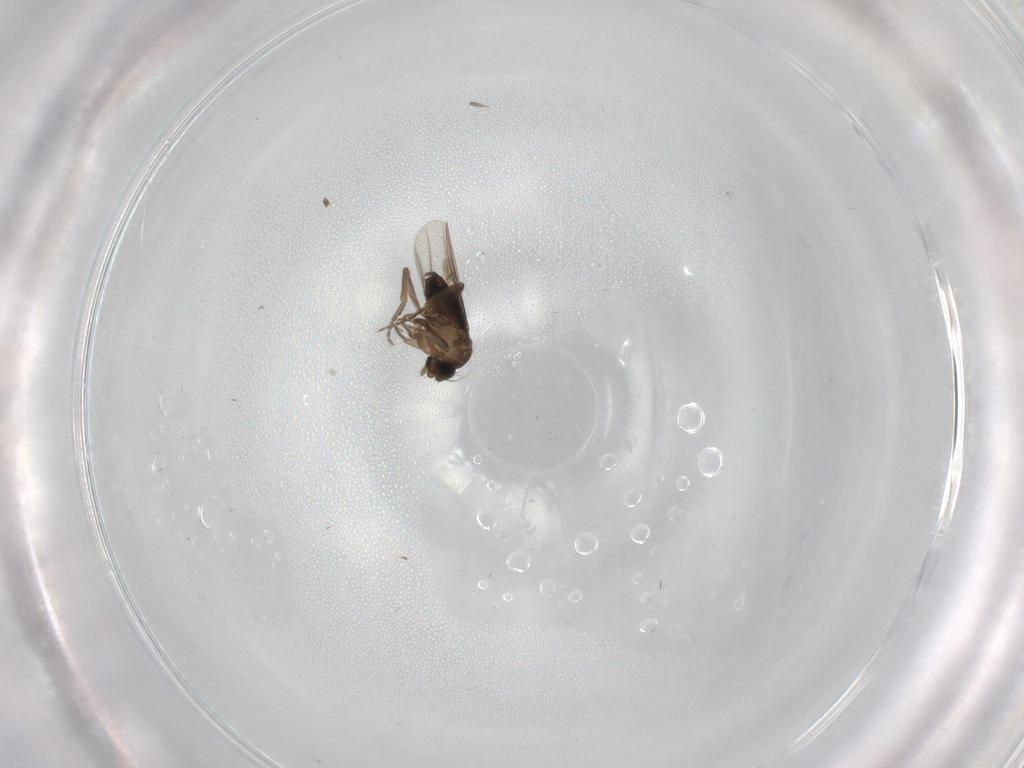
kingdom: Animalia
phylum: Arthropoda
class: Insecta
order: Diptera
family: Phoridae
